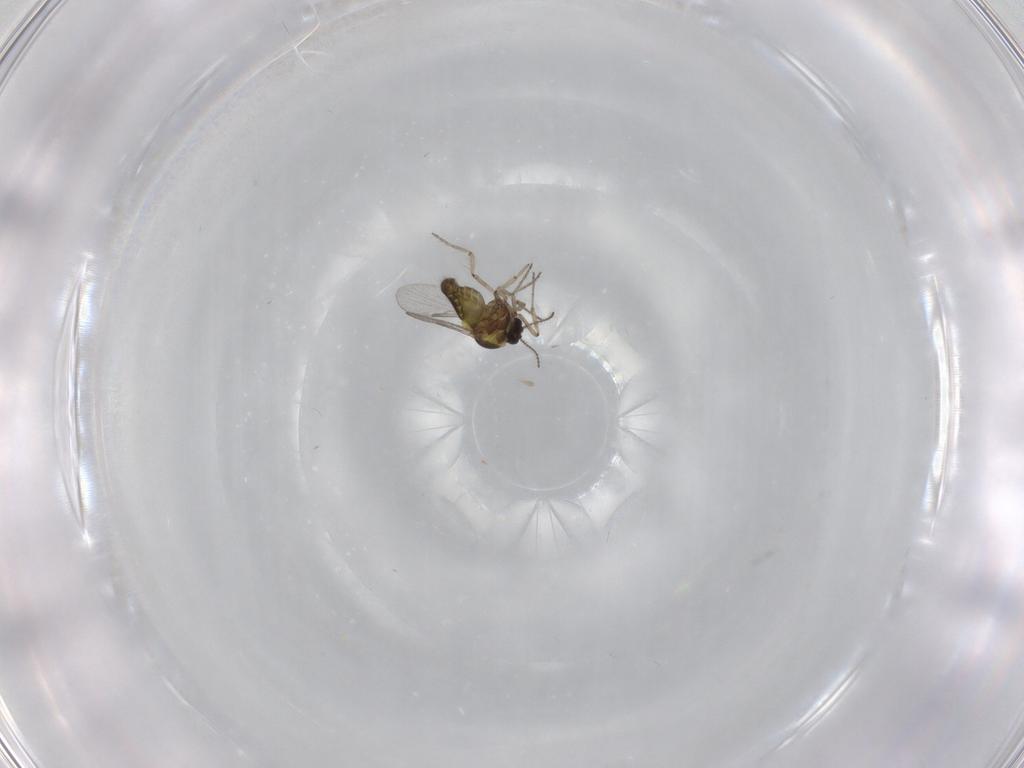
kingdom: Animalia
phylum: Arthropoda
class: Insecta
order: Diptera
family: Ceratopogonidae
